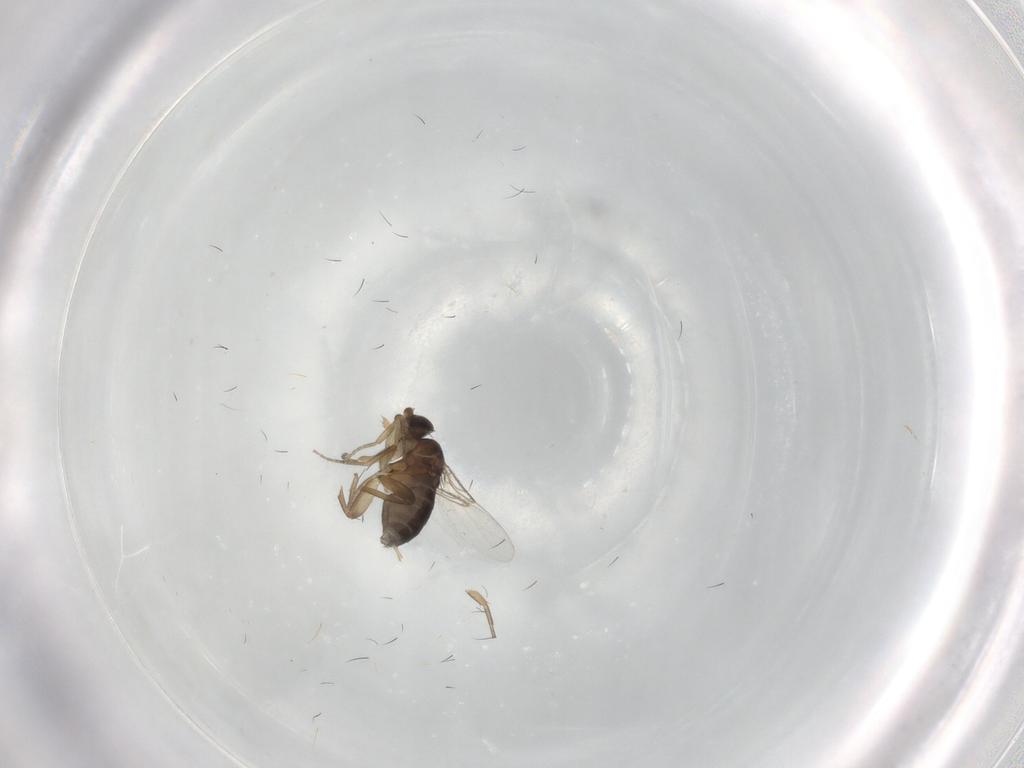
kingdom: Animalia
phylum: Arthropoda
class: Insecta
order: Diptera
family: Phoridae
